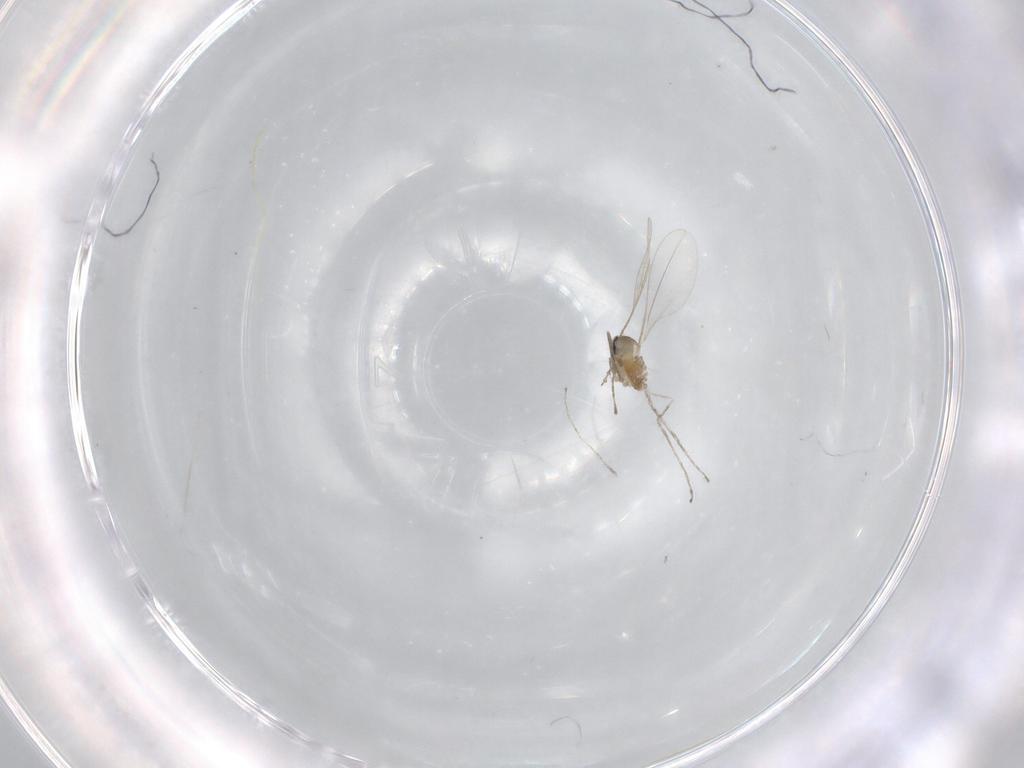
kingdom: Animalia
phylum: Arthropoda
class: Insecta
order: Diptera
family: Cecidomyiidae
